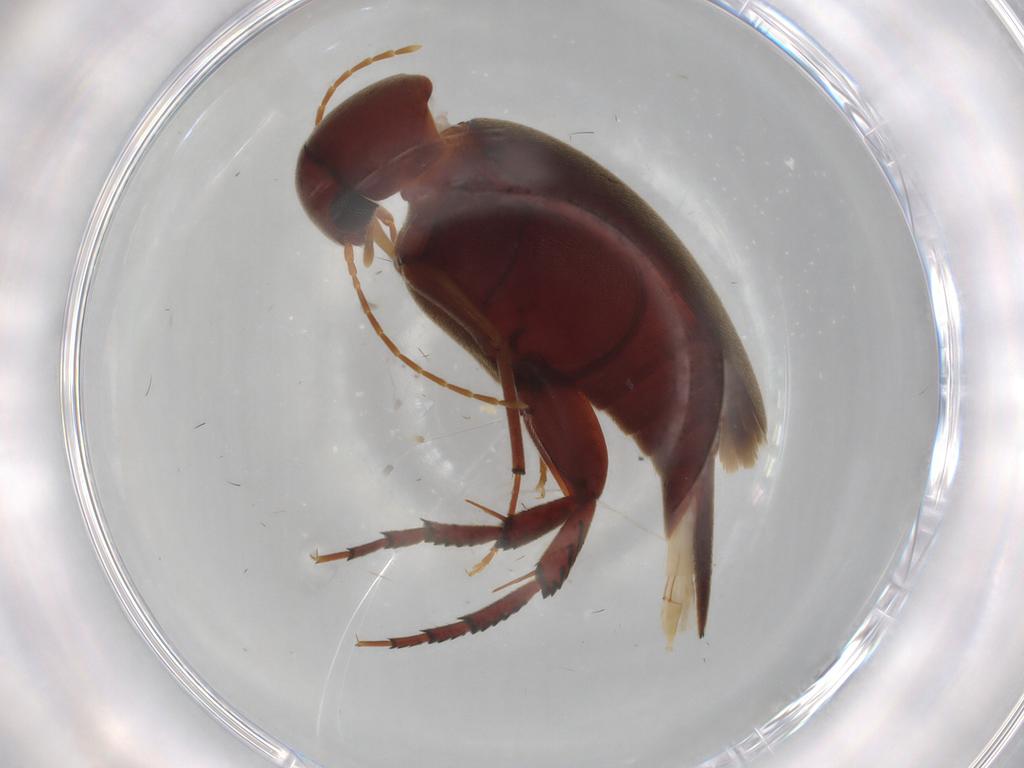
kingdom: Animalia
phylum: Arthropoda
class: Insecta
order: Coleoptera
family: Mordellidae
